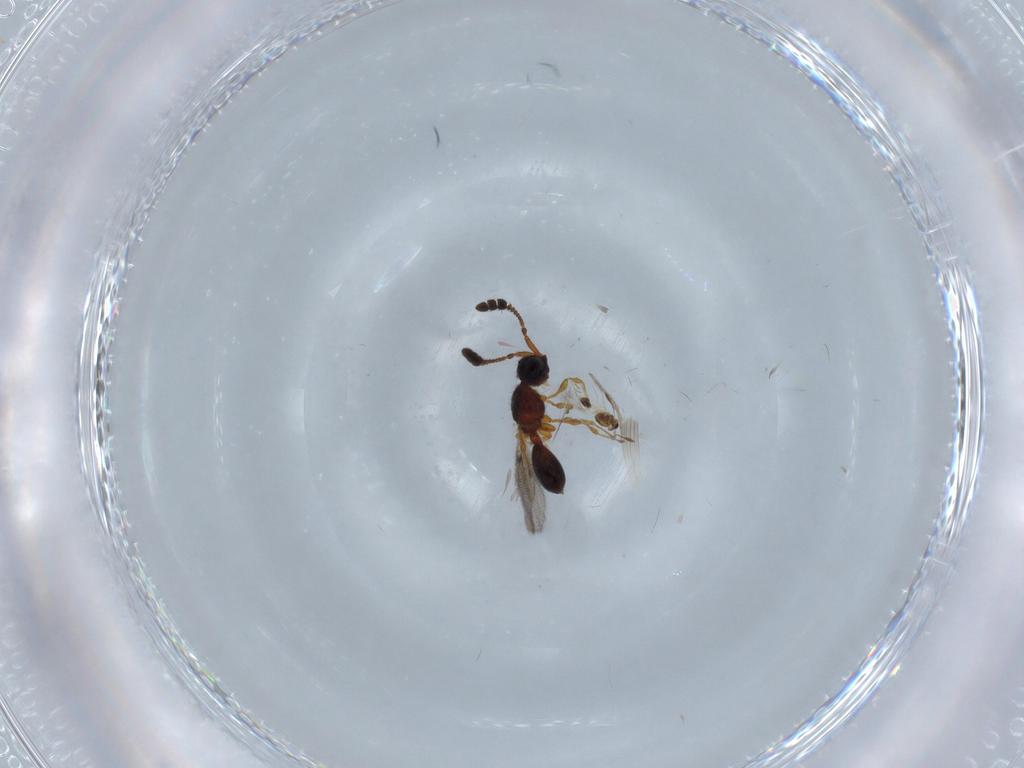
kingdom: Animalia
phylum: Arthropoda
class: Insecta
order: Hymenoptera
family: Diapriidae
